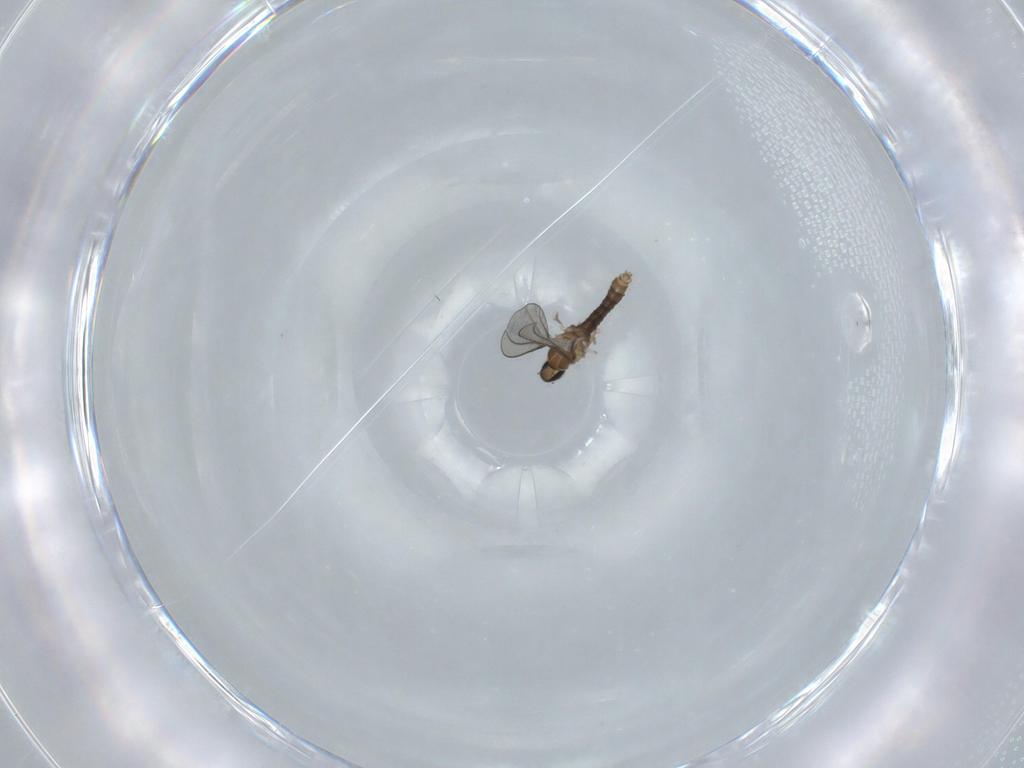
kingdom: Animalia
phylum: Arthropoda
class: Insecta
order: Diptera
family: Cecidomyiidae
